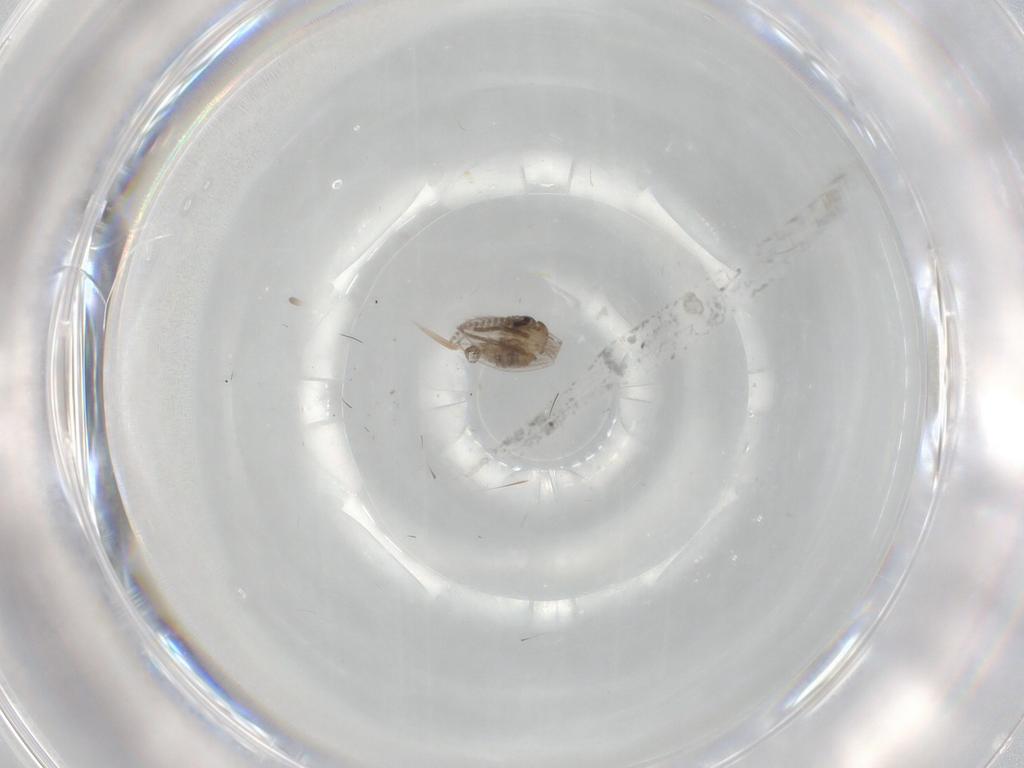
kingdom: Animalia
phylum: Arthropoda
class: Insecta
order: Diptera
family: Psychodidae
